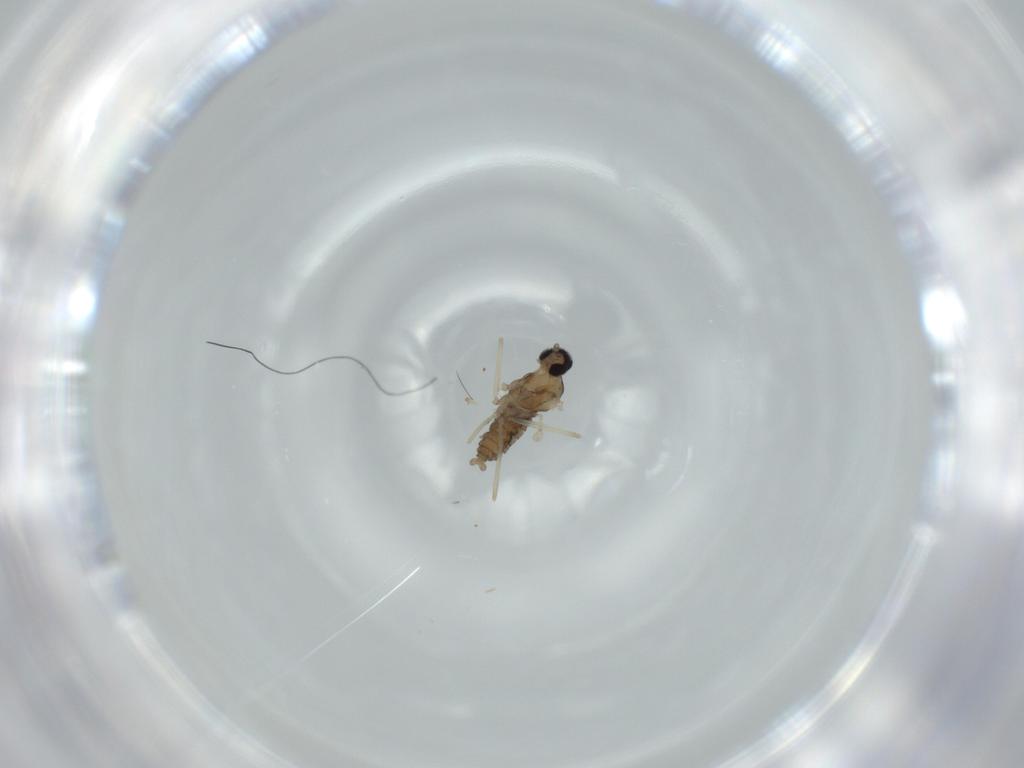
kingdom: Animalia
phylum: Arthropoda
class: Insecta
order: Diptera
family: Cecidomyiidae
